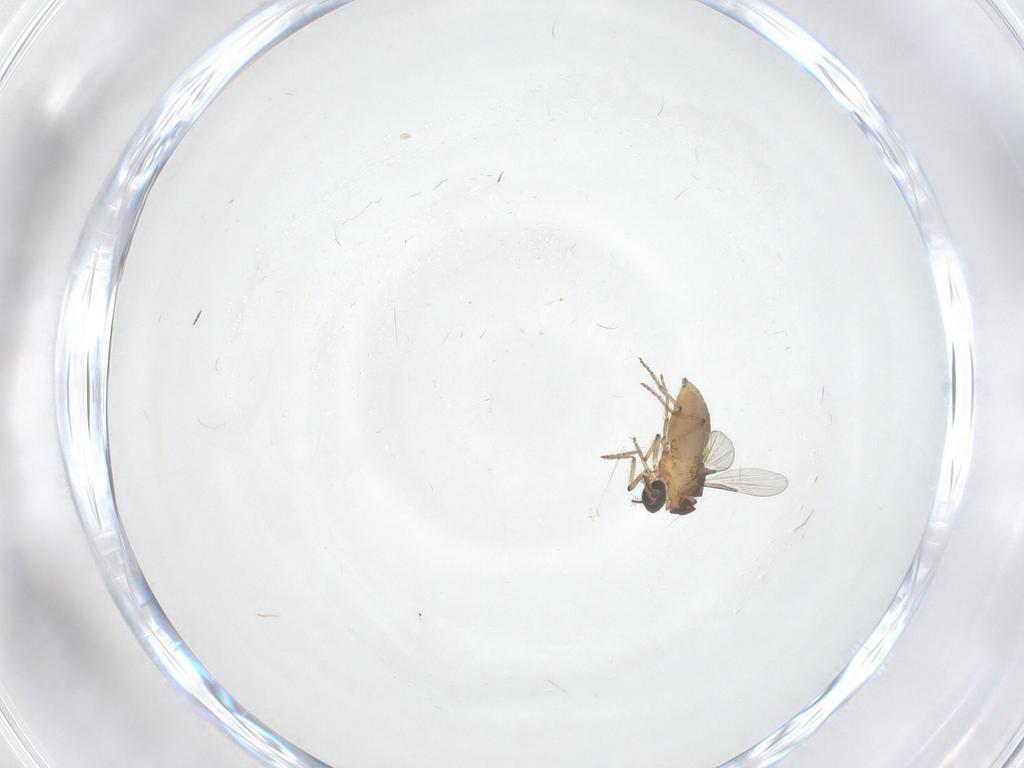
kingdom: Animalia
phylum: Arthropoda
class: Insecta
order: Diptera
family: Ceratopogonidae
